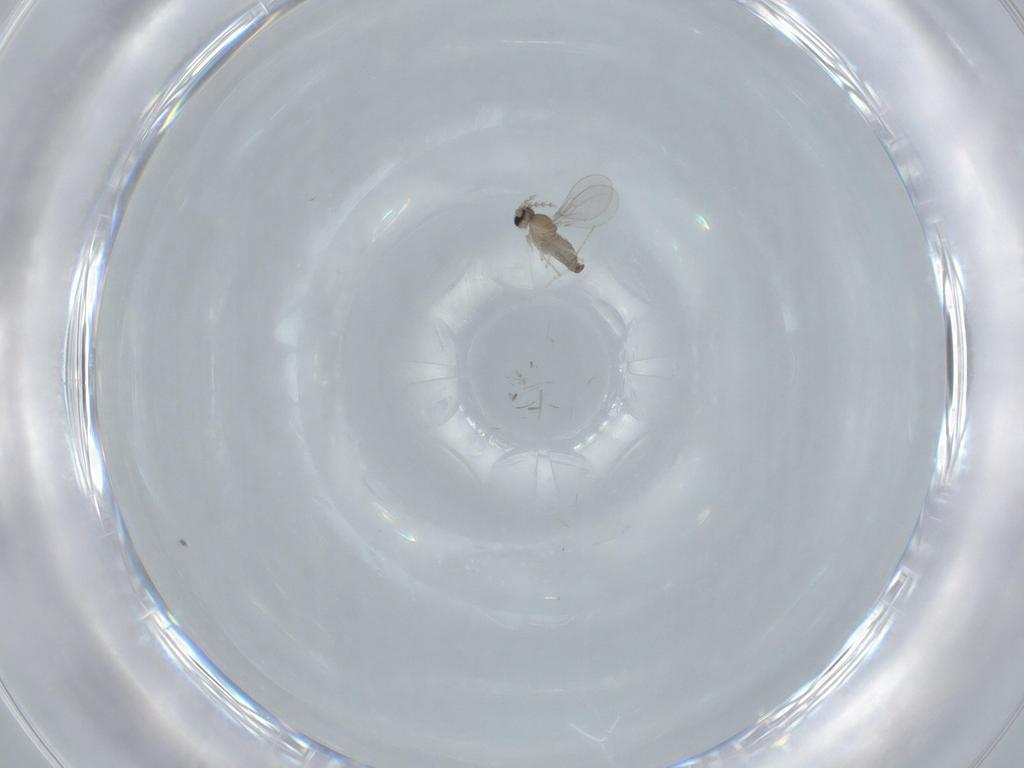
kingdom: Animalia
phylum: Arthropoda
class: Insecta
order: Diptera
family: Cecidomyiidae
